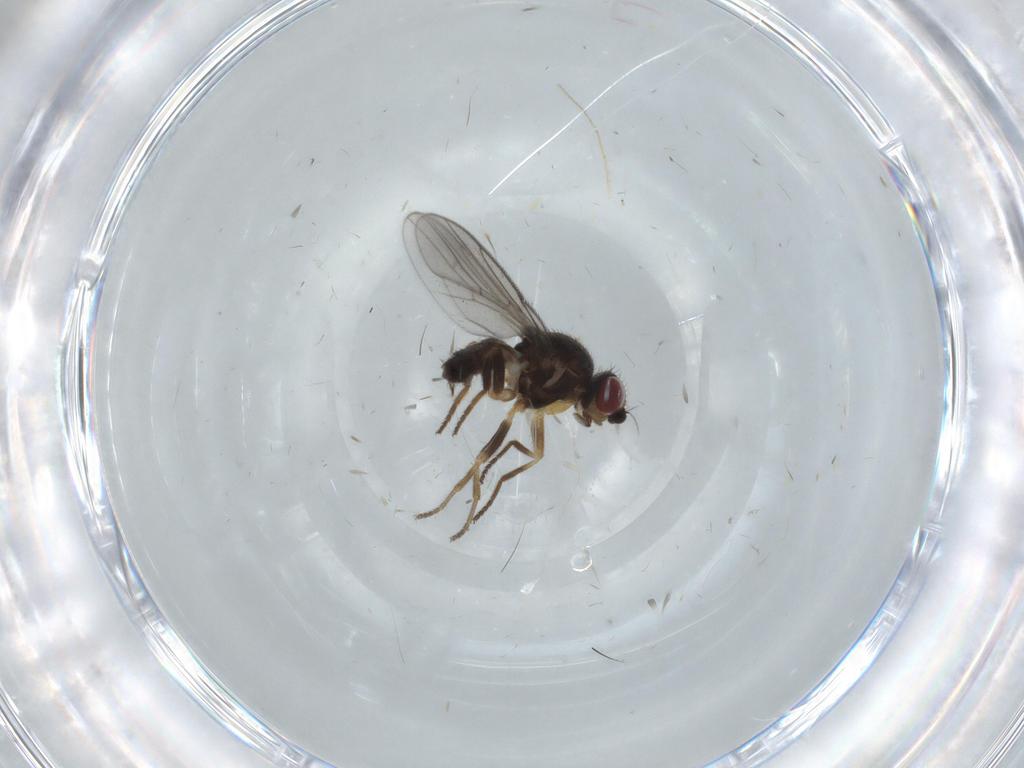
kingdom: Animalia
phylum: Arthropoda
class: Insecta
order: Diptera
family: Chloropidae
